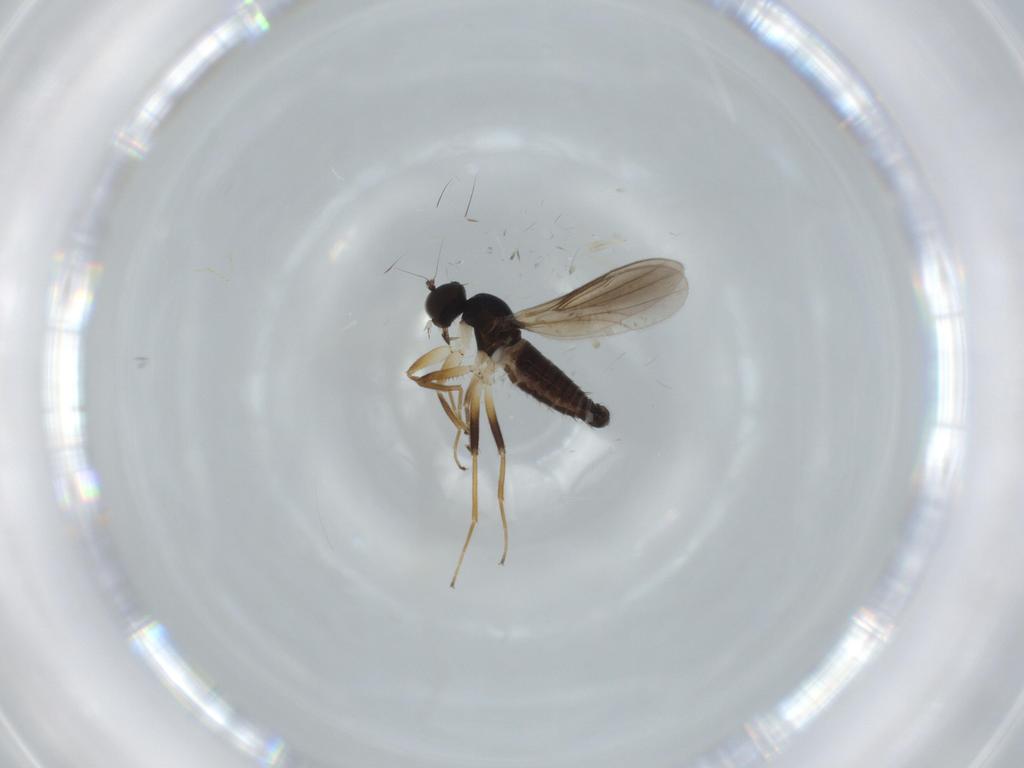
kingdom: Animalia
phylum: Arthropoda
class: Insecta
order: Diptera
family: Hybotidae
